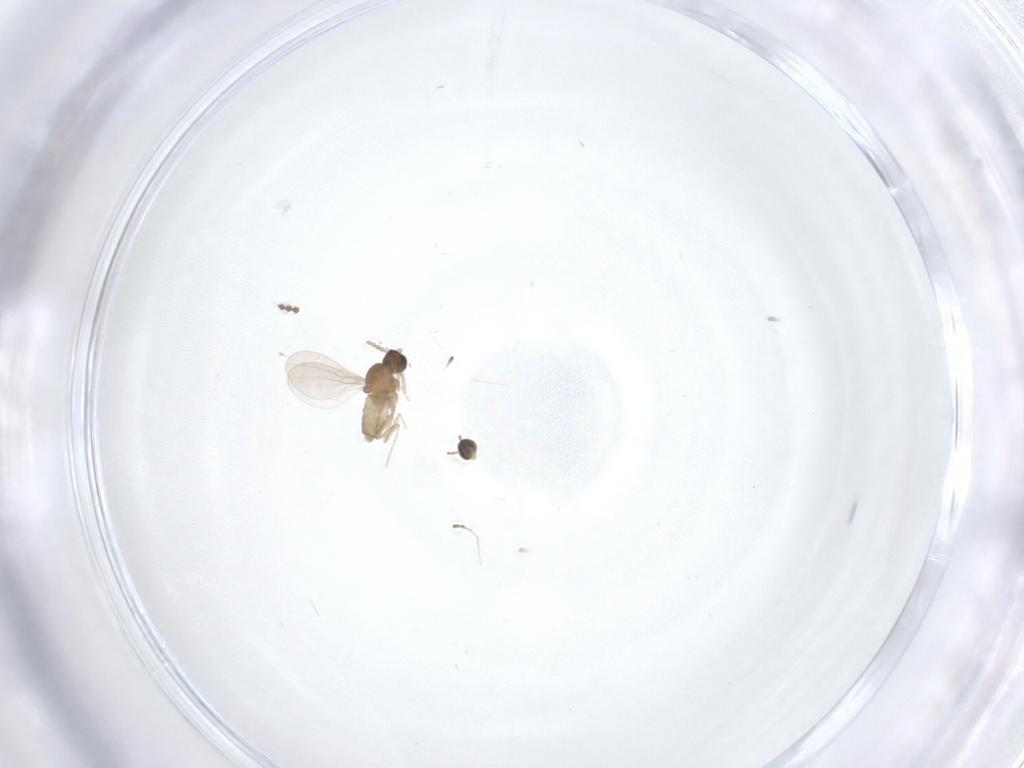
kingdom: Animalia
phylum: Arthropoda
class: Insecta
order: Diptera
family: Cecidomyiidae
